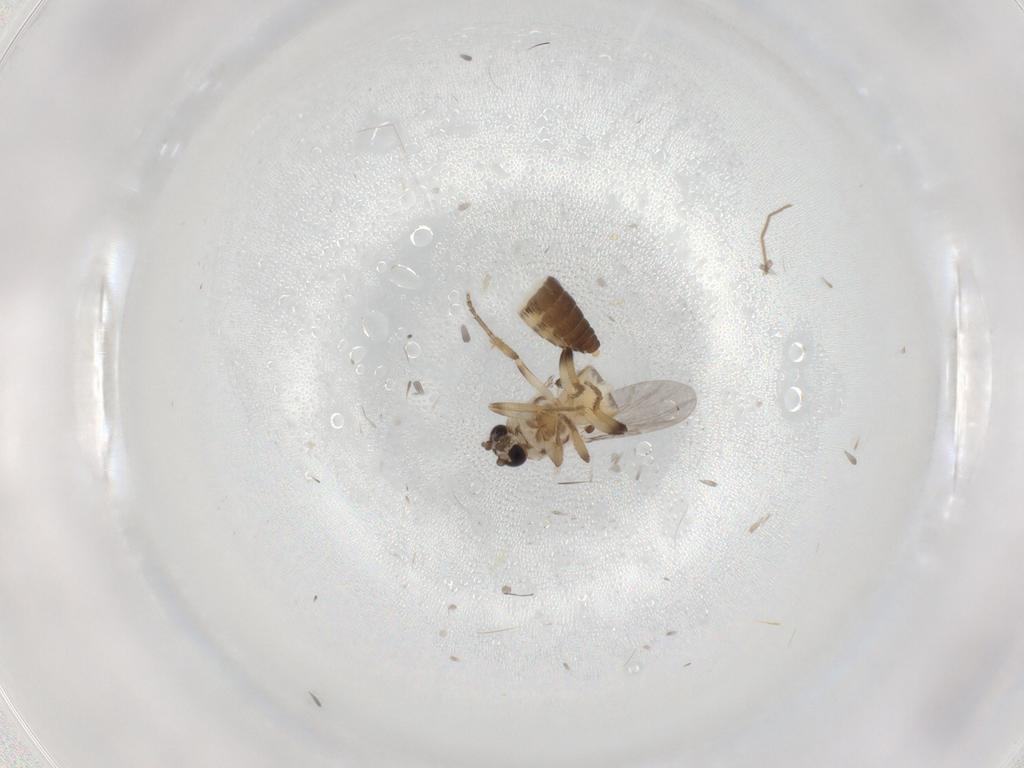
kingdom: Animalia
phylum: Arthropoda
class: Insecta
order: Diptera
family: Ceratopogonidae
